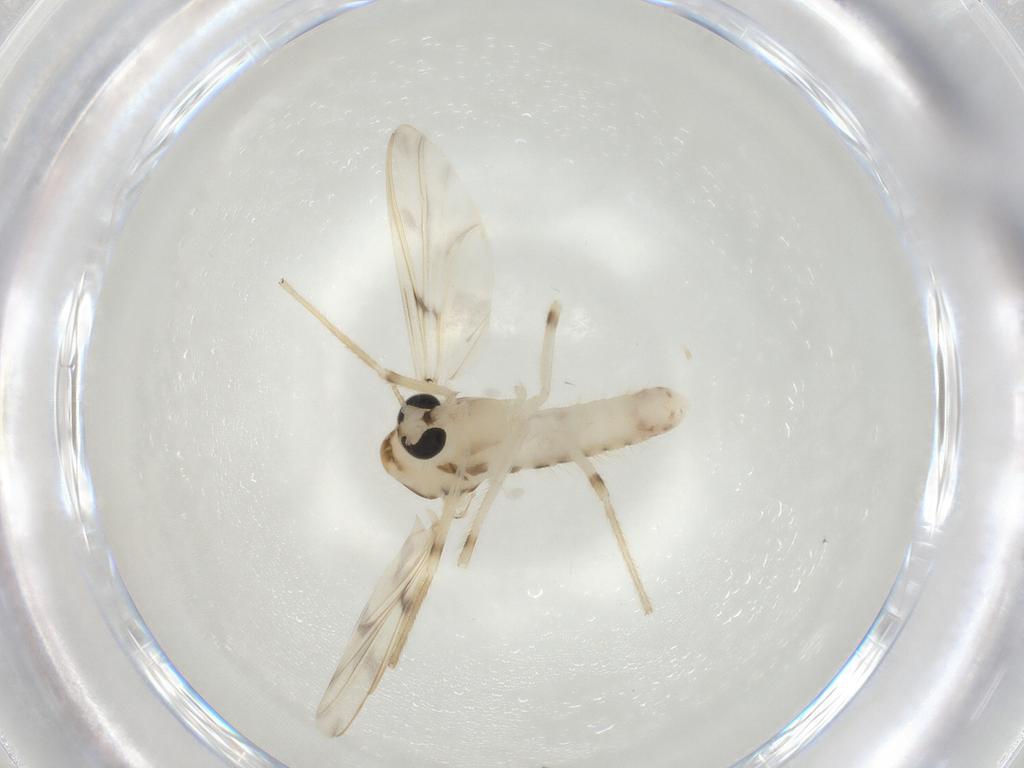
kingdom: Animalia
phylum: Arthropoda
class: Insecta
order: Diptera
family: Chironomidae
